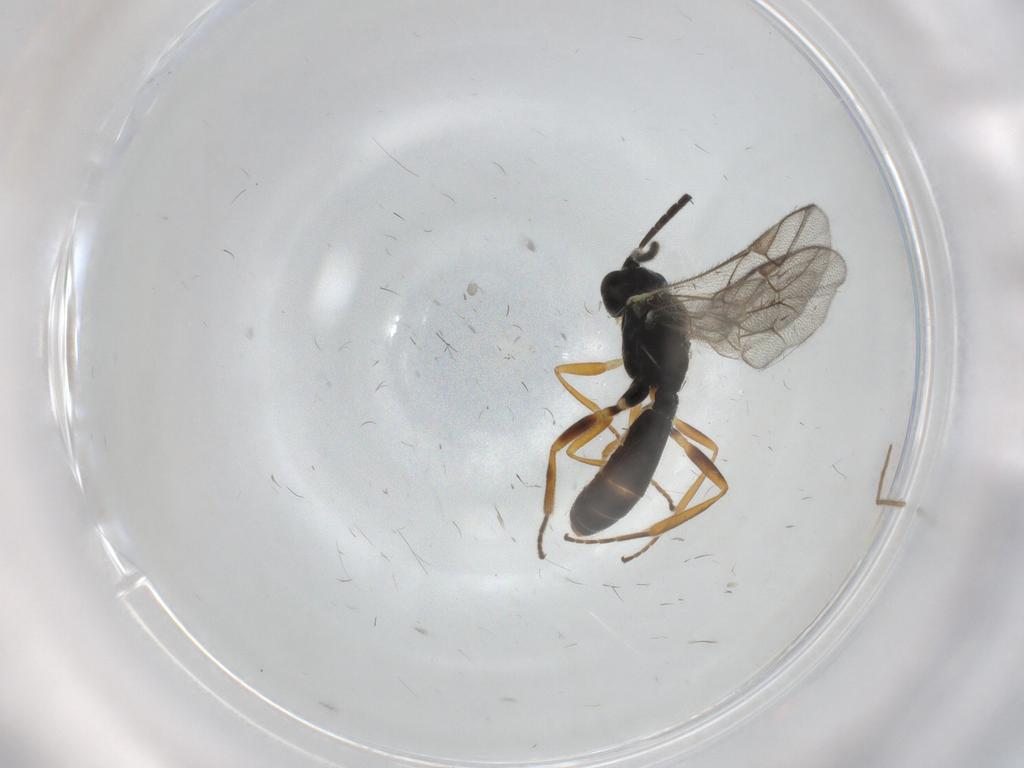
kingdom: Animalia
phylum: Arthropoda
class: Insecta
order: Hymenoptera
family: Ichneumonidae
